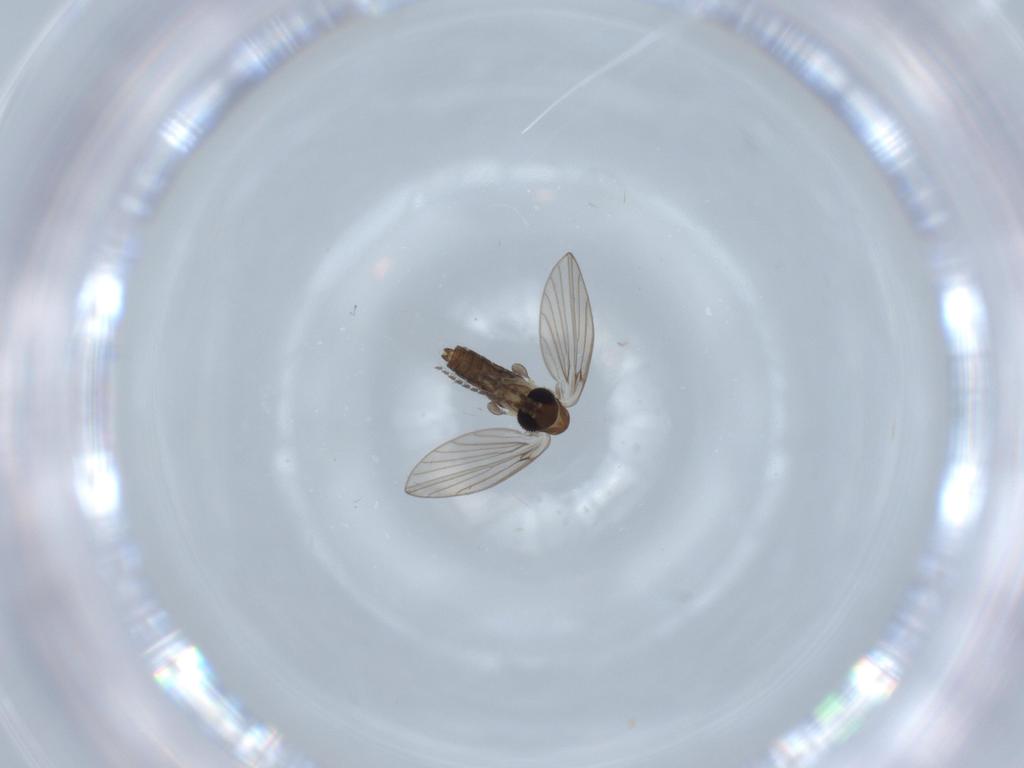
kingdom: Animalia
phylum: Arthropoda
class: Insecta
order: Diptera
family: Psychodidae
